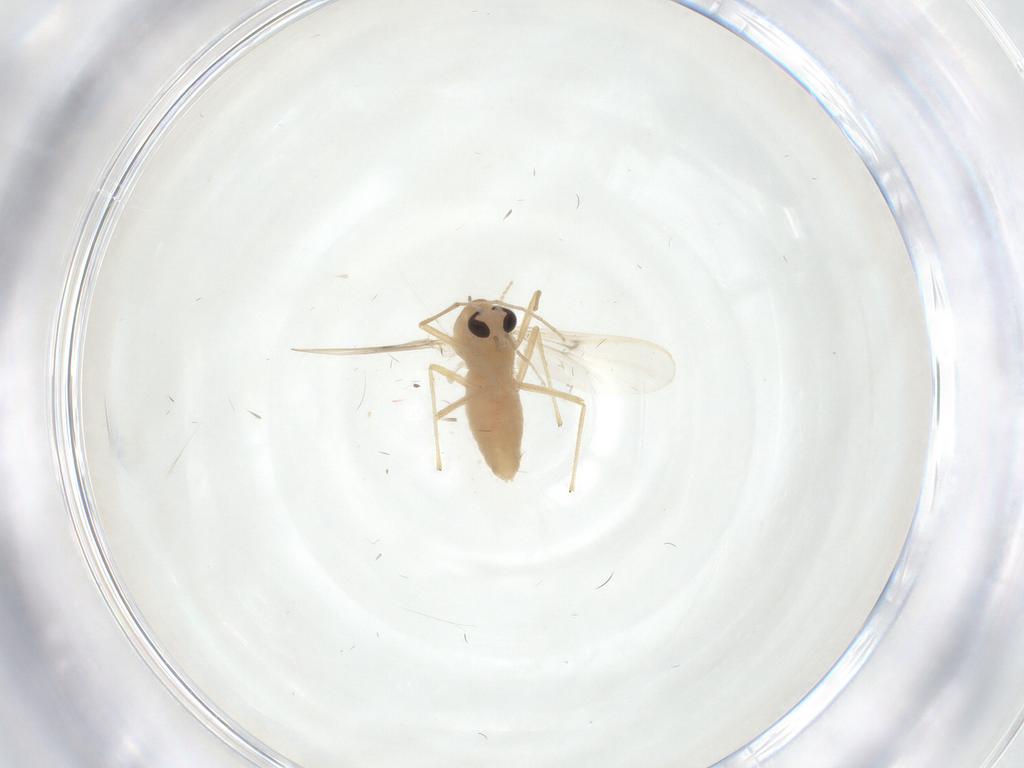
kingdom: Animalia
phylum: Arthropoda
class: Insecta
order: Diptera
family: Chironomidae
